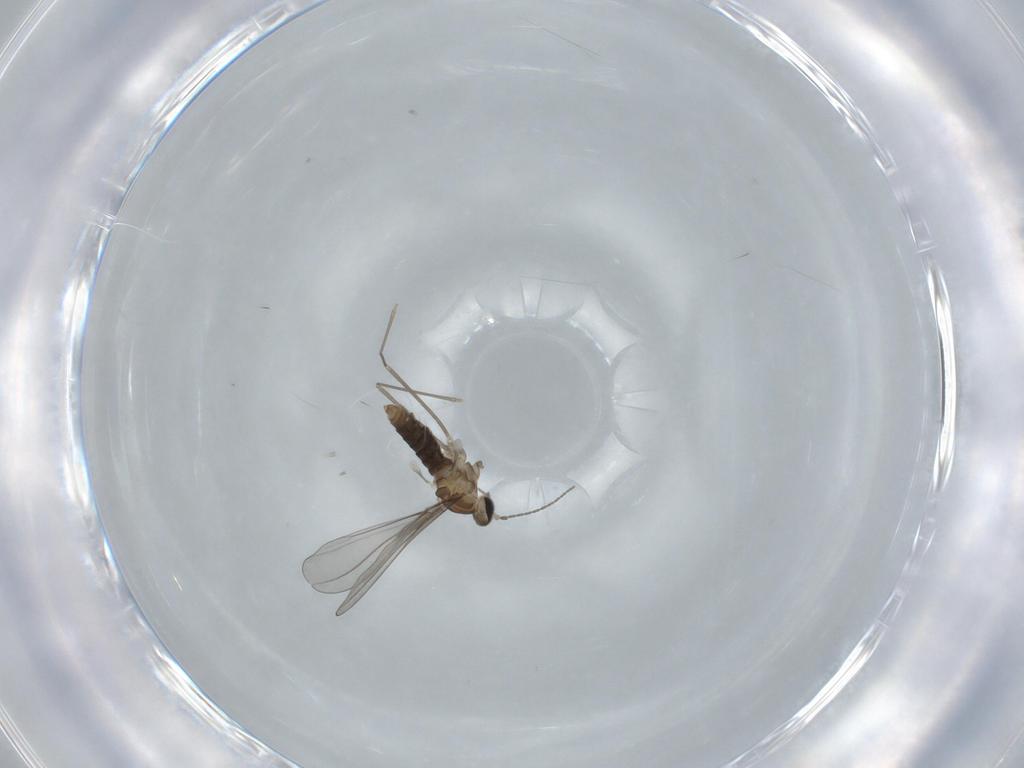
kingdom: Animalia
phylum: Arthropoda
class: Insecta
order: Diptera
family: Cecidomyiidae
